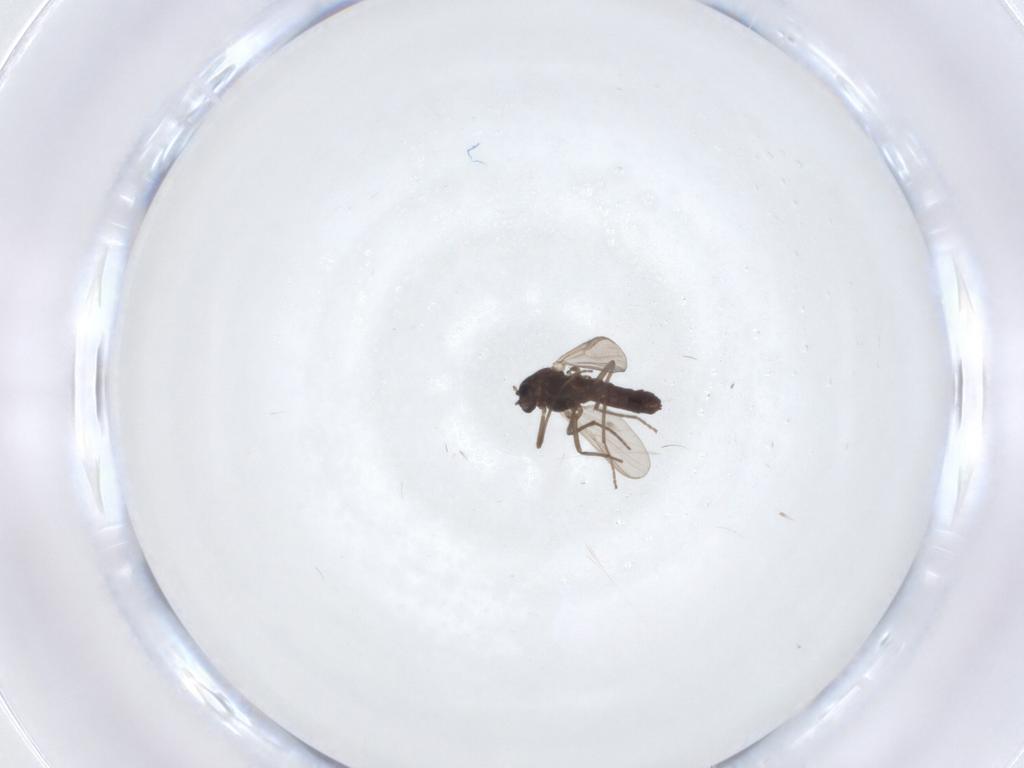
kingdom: Animalia
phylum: Arthropoda
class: Insecta
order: Diptera
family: Chironomidae
